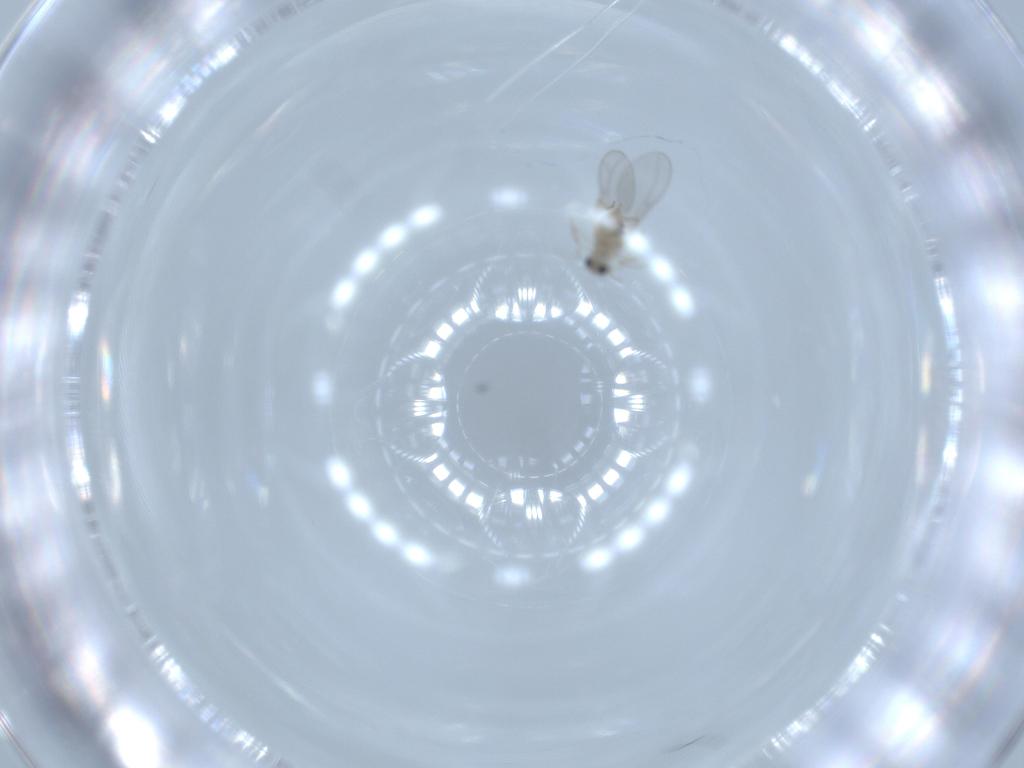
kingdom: Animalia
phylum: Arthropoda
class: Insecta
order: Diptera
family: Cecidomyiidae
